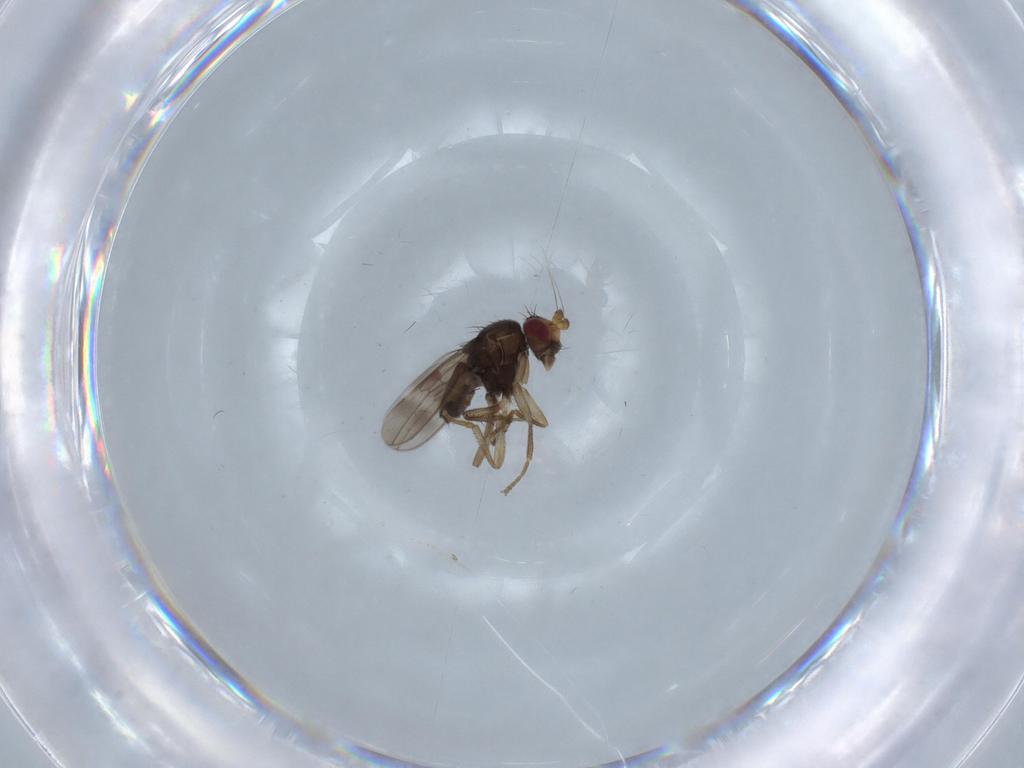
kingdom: Animalia
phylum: Arthropoda
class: Insecta
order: Diptera
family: Sphaeroceridae
